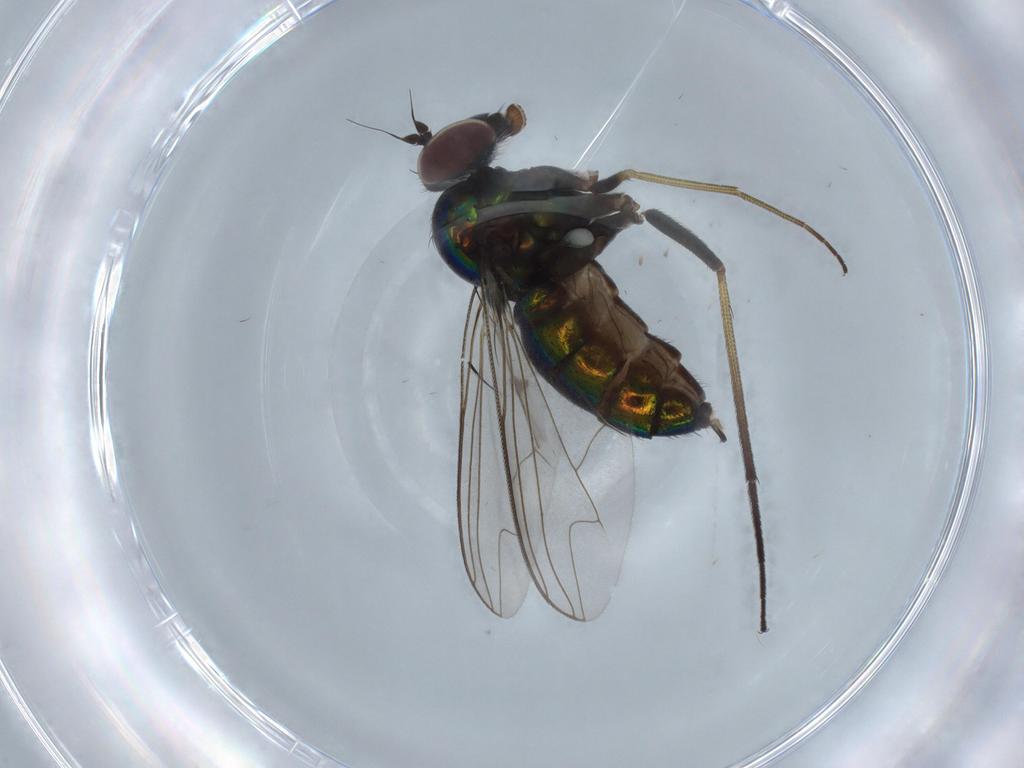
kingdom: Animalia
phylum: Arthropoda
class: Insecta
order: Diptera
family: Dolichopodidae
